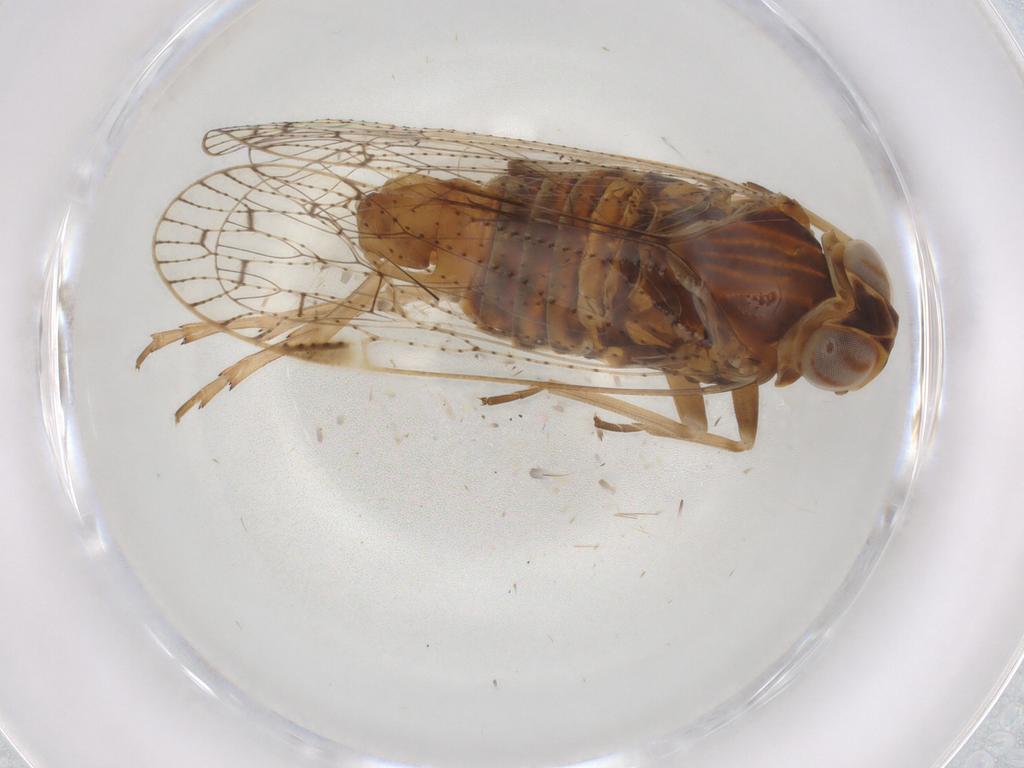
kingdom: Animalia
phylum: Arthropoda
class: Insecta
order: Hemiptera
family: Cixiidae
